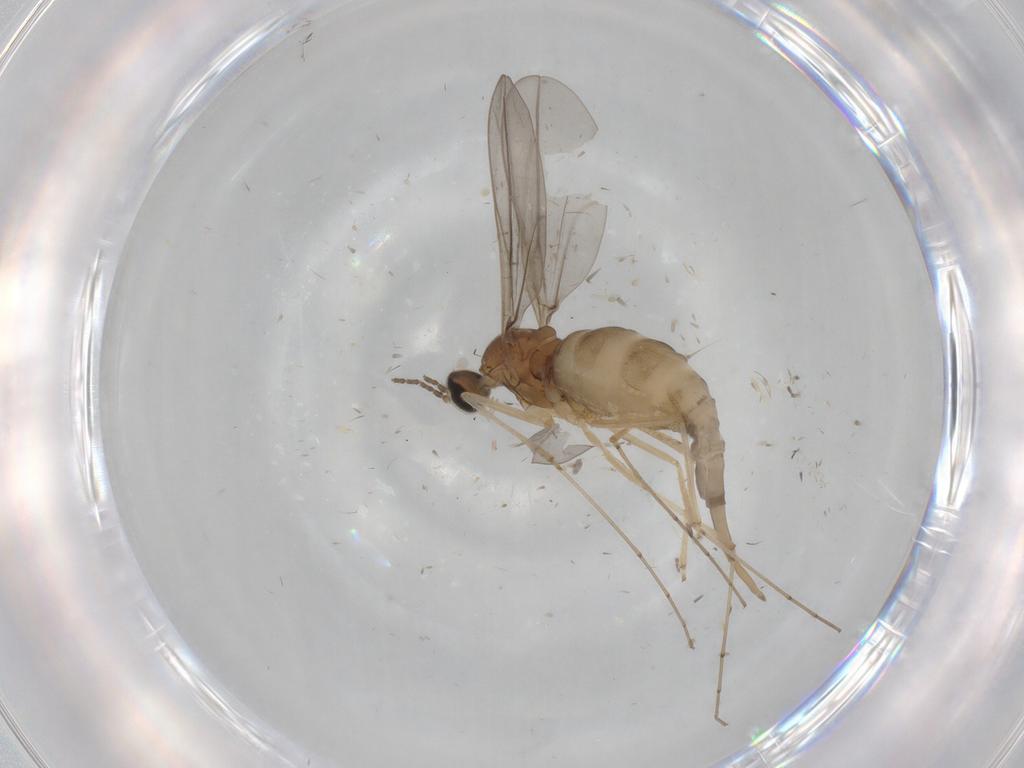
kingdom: Animalia
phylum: Arthropoda
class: Insecta
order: Diptera
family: Cecidomyiidae
